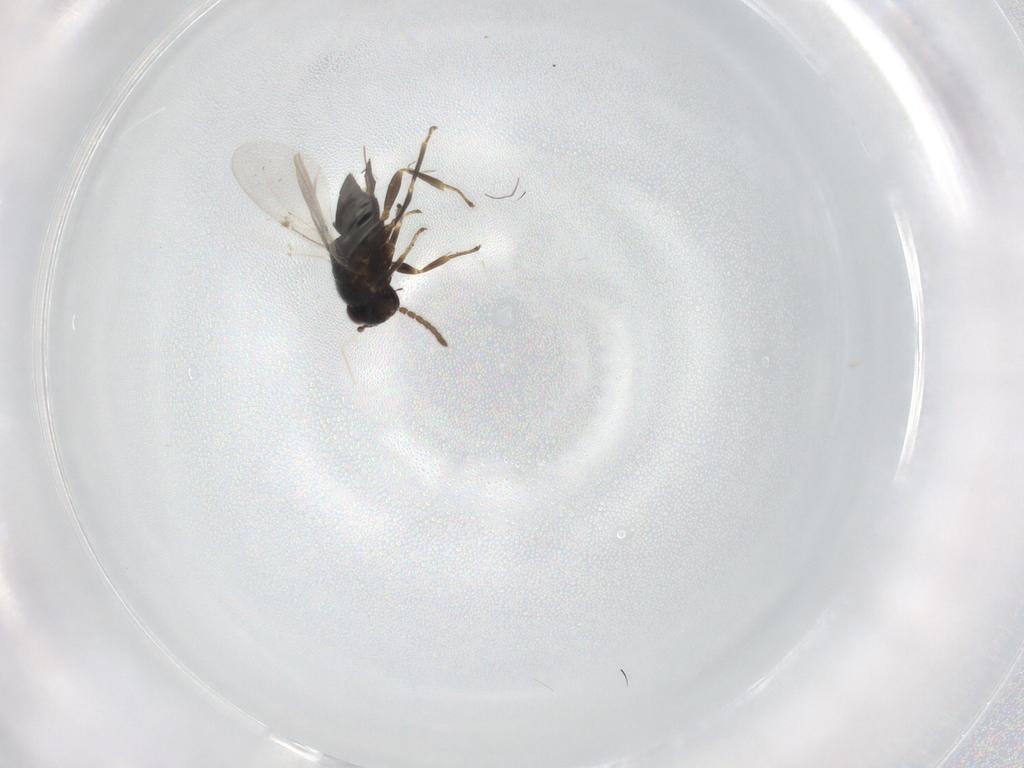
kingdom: Animalia
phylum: Arthropoda
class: Insecta
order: Hymenoptera
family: Encyrtidae
